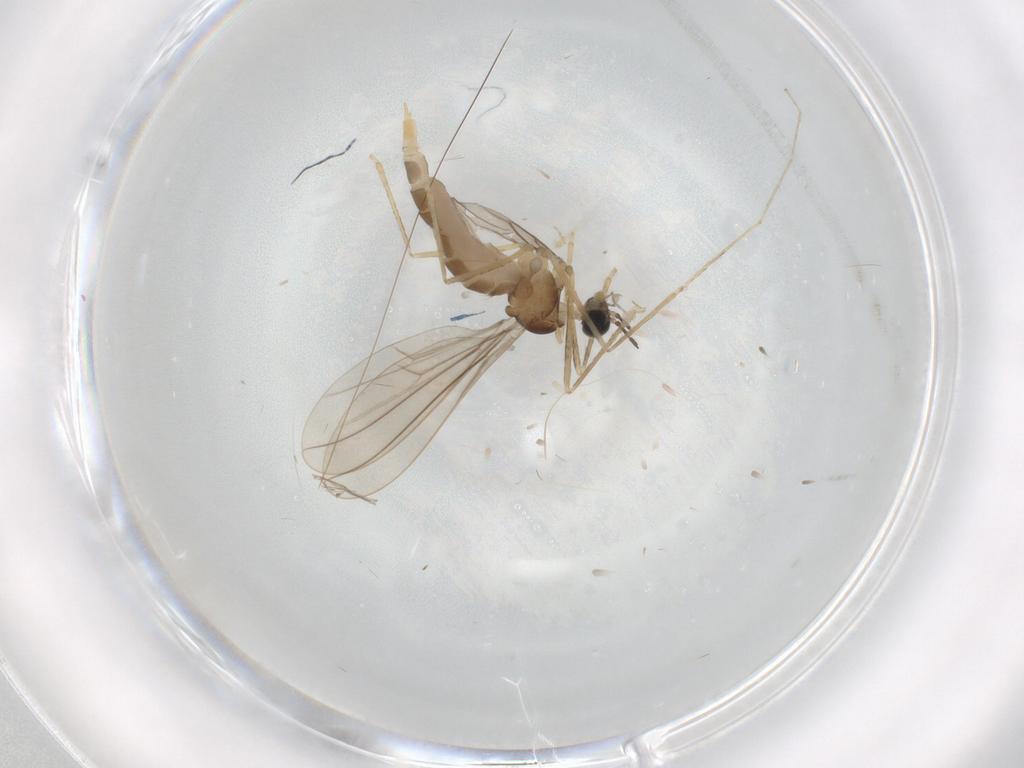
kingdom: Animalia
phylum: Arthropoda
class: Insecta
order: Diptera
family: Cecidomyiidae
